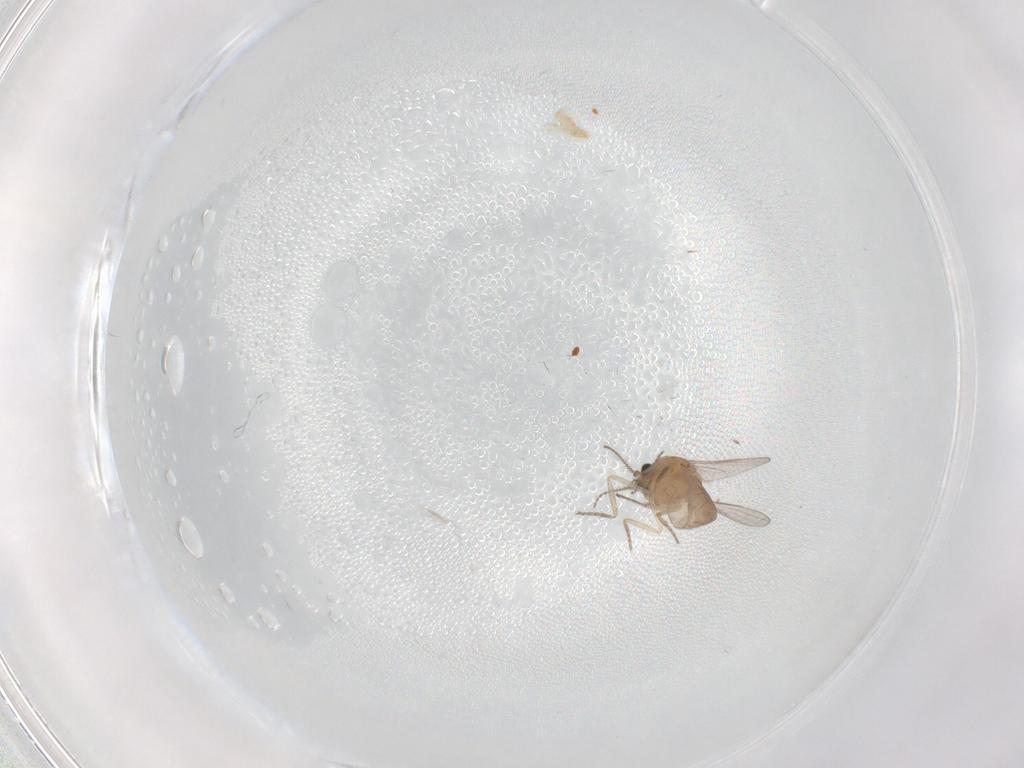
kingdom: Animalia
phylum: Arthropoda
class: Insecta
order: Diptera
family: Ceratopogonidae
